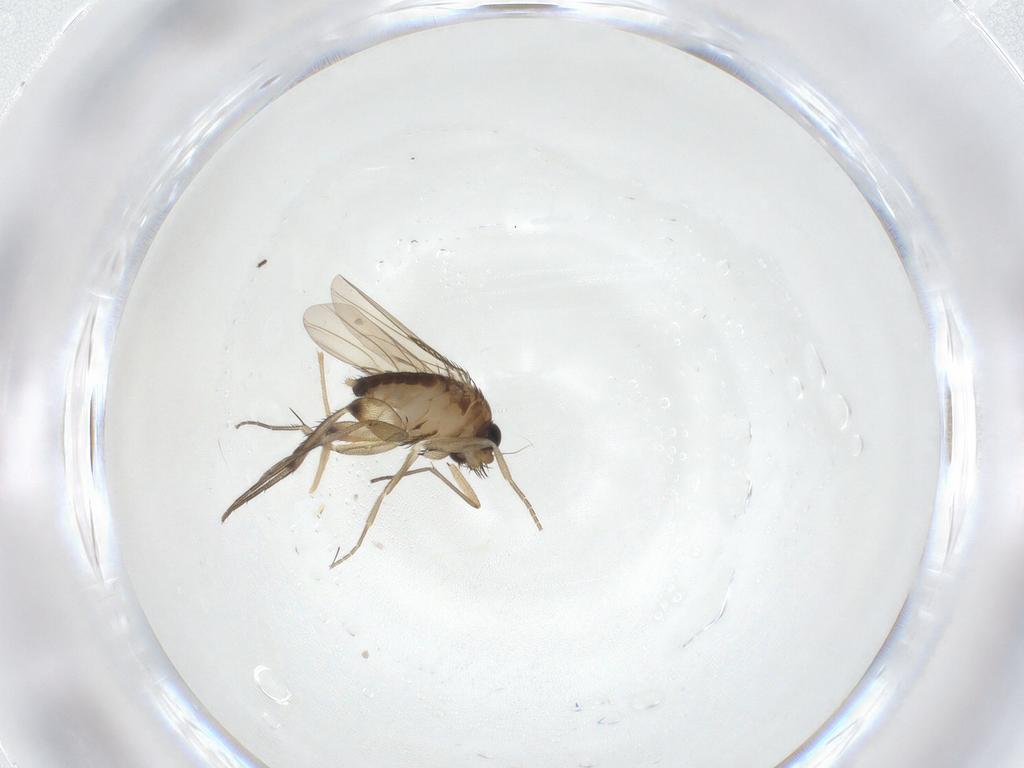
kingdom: Animalia
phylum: Arthropoda
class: Insecta
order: Diptera
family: Phoridae
